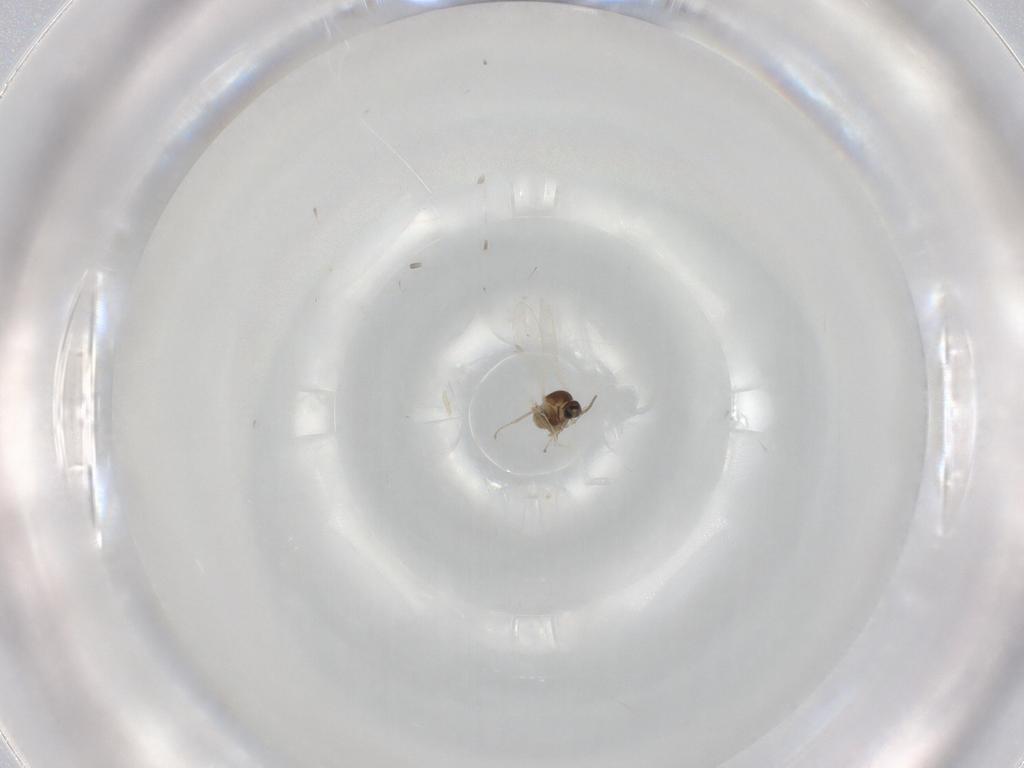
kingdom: Animalia
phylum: Arthropoda
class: Insecta
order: Diptera
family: Cecidomyiidae
